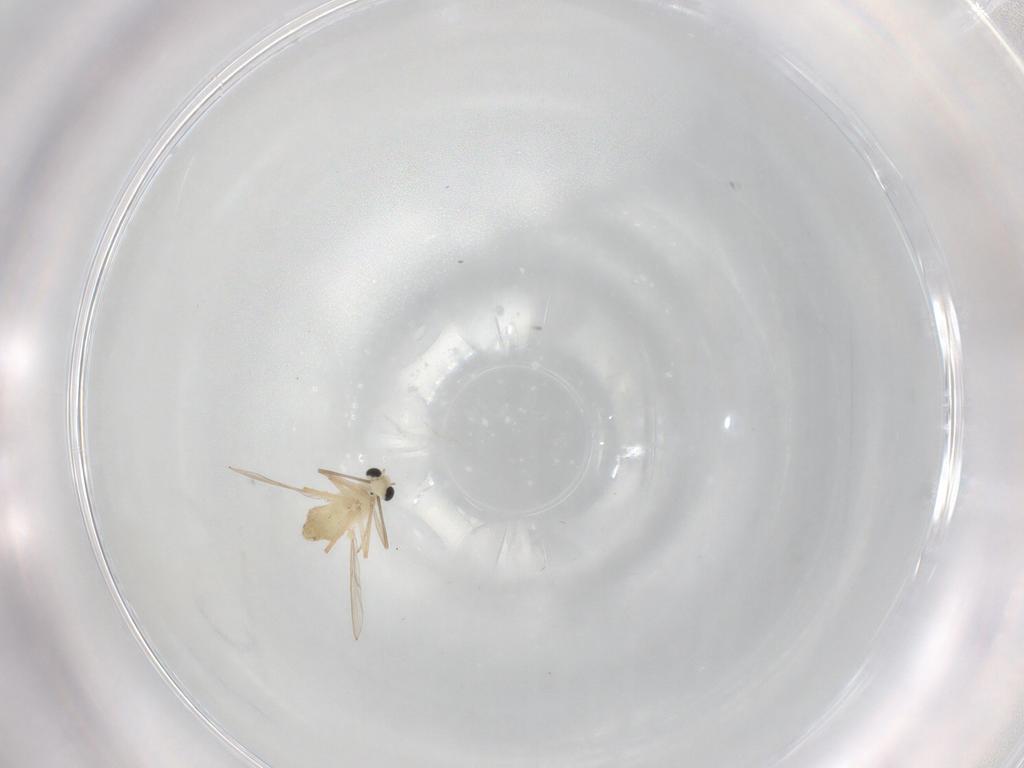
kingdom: Animalia
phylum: Arthropoda
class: Insecta
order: Diptera
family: Chironomidae
